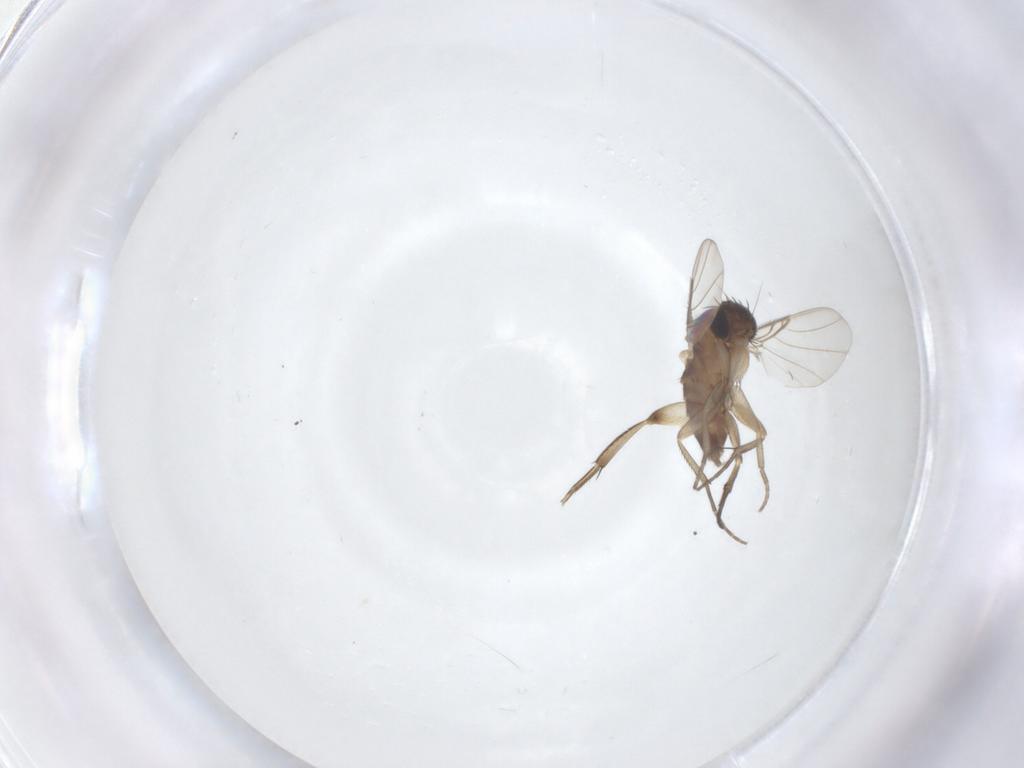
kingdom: Animalia
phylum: Arthropoda
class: Insecta
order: Diptera
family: Phoridae
